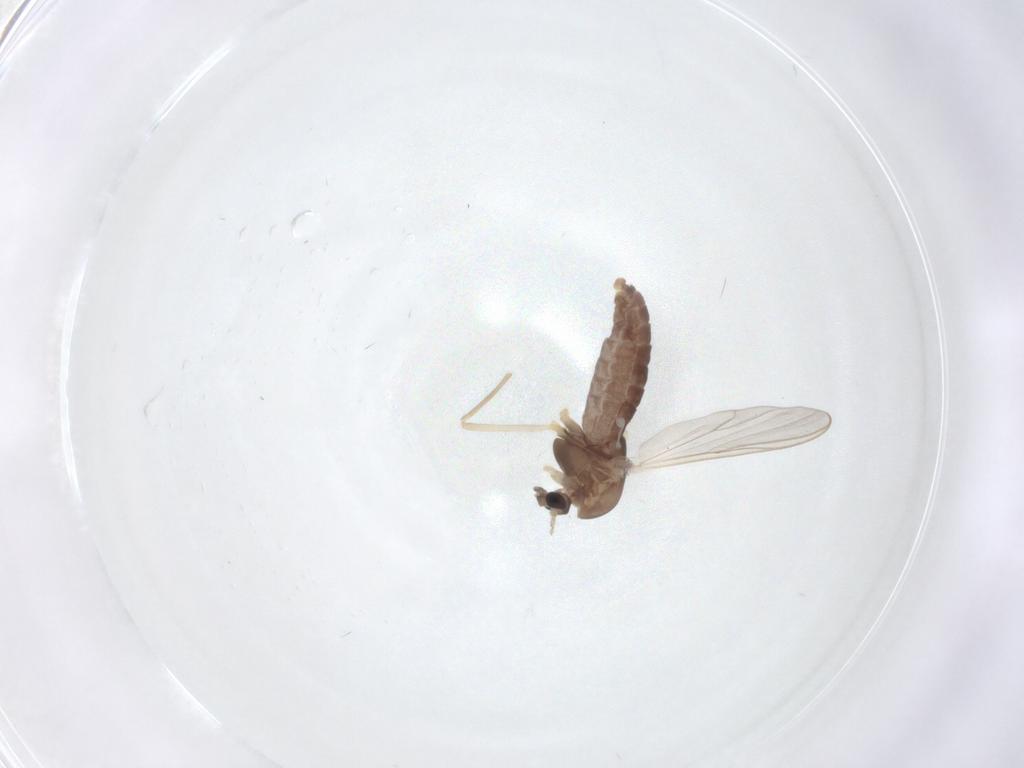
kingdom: Animalia
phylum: Arthropoda
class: Insecta
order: Diptera
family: Chironomidae
